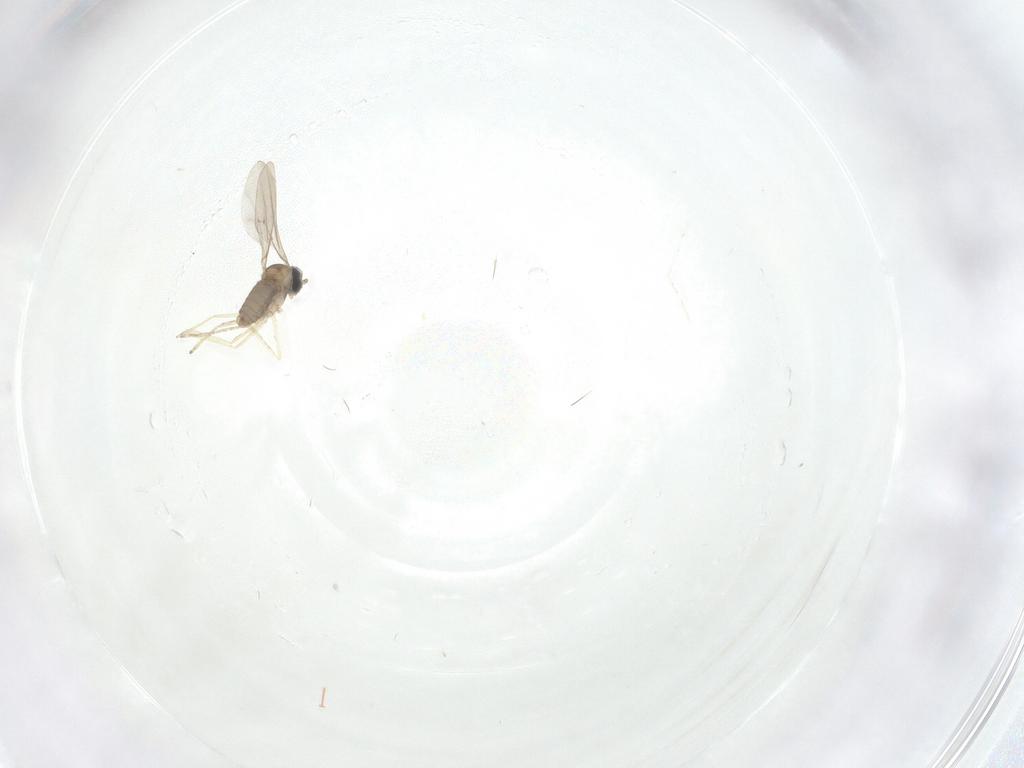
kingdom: Animalia
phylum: Arthropoda
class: Insecta
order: Diptera
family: Cecidomyiidae
